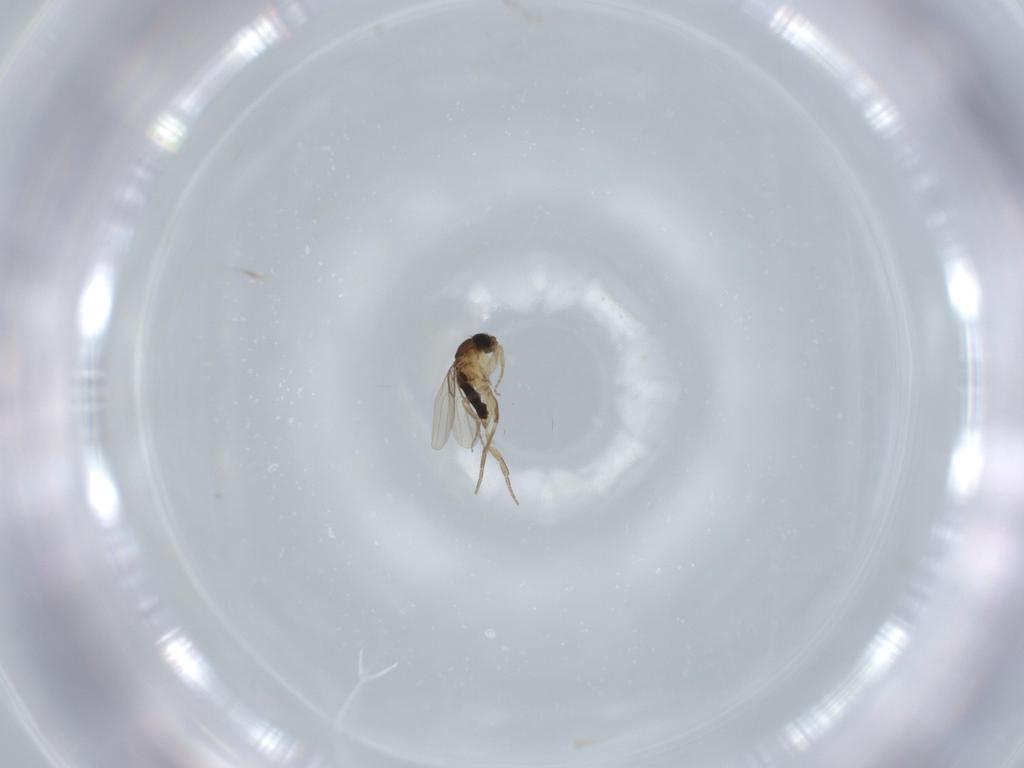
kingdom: Animalia
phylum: Arthropoda
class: Insecta
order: Diptera
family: Phoridae
